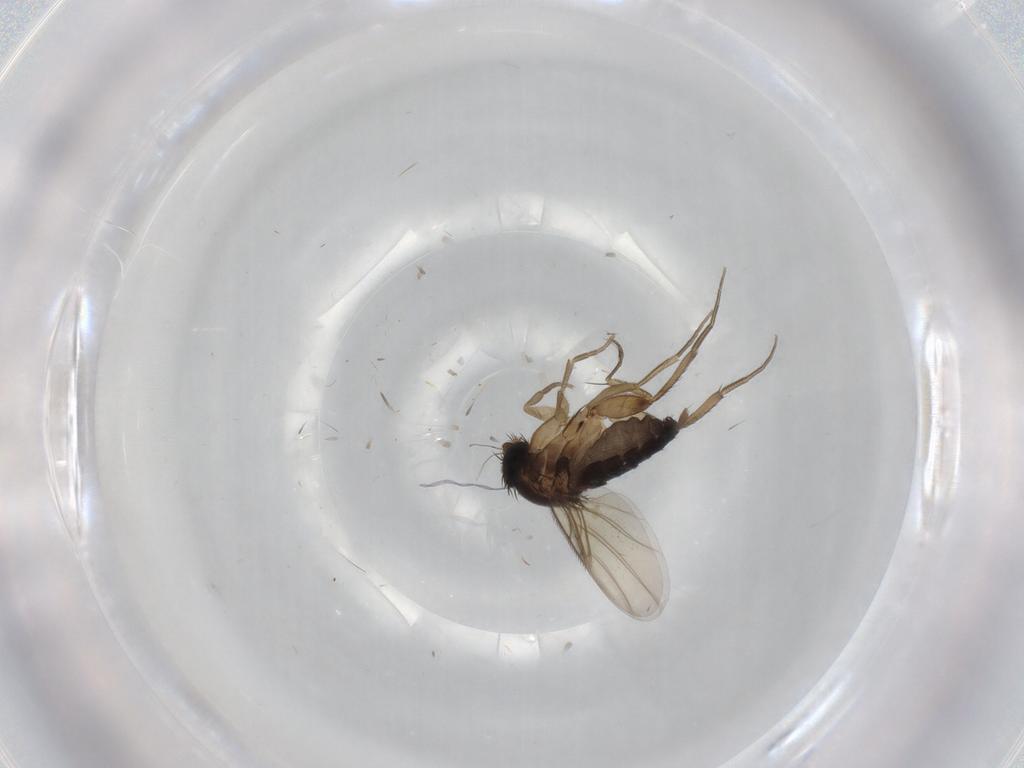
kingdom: Animalia
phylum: Arthropoda
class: Insecta
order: Diptera
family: Phoridae
